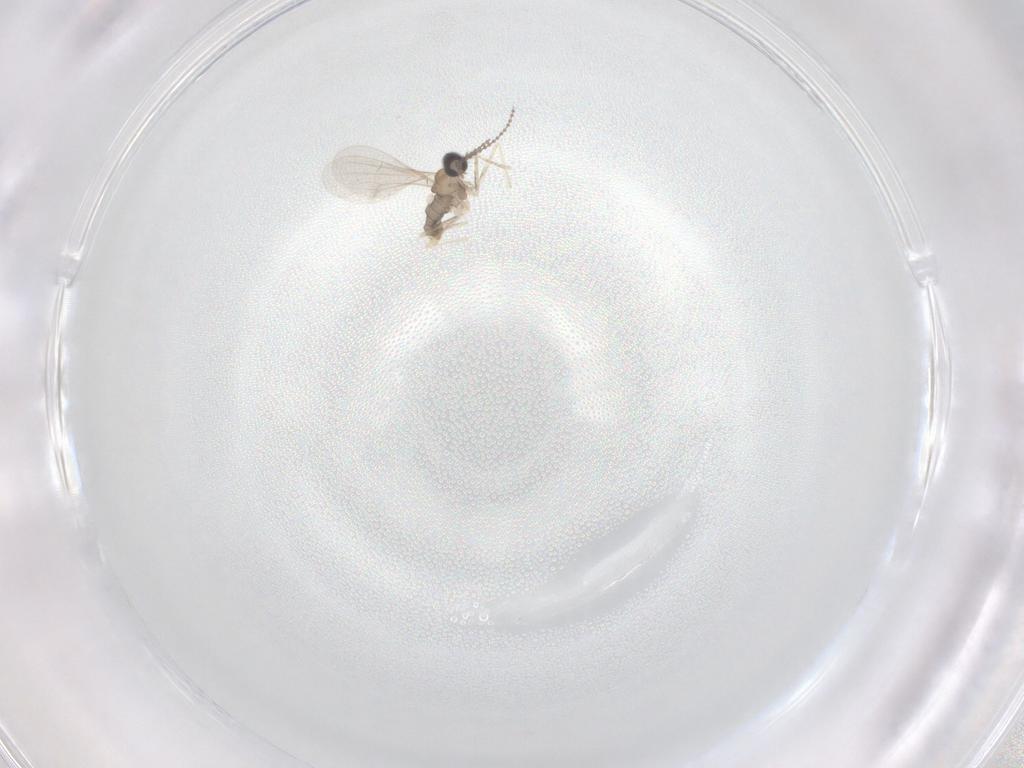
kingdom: Animalia
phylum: Arthropoda
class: Insecta
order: Diptera
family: Cecidomyiidae
